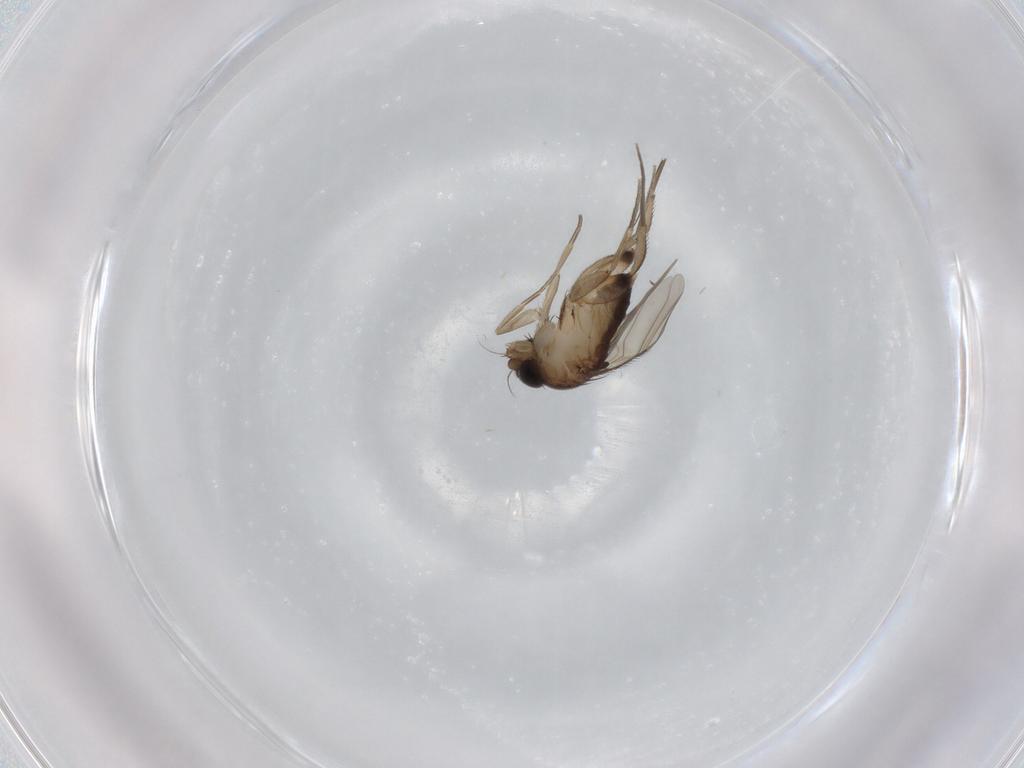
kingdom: Animalia
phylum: Arthropoda
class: Insecta
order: Diptera
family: Phoridae
